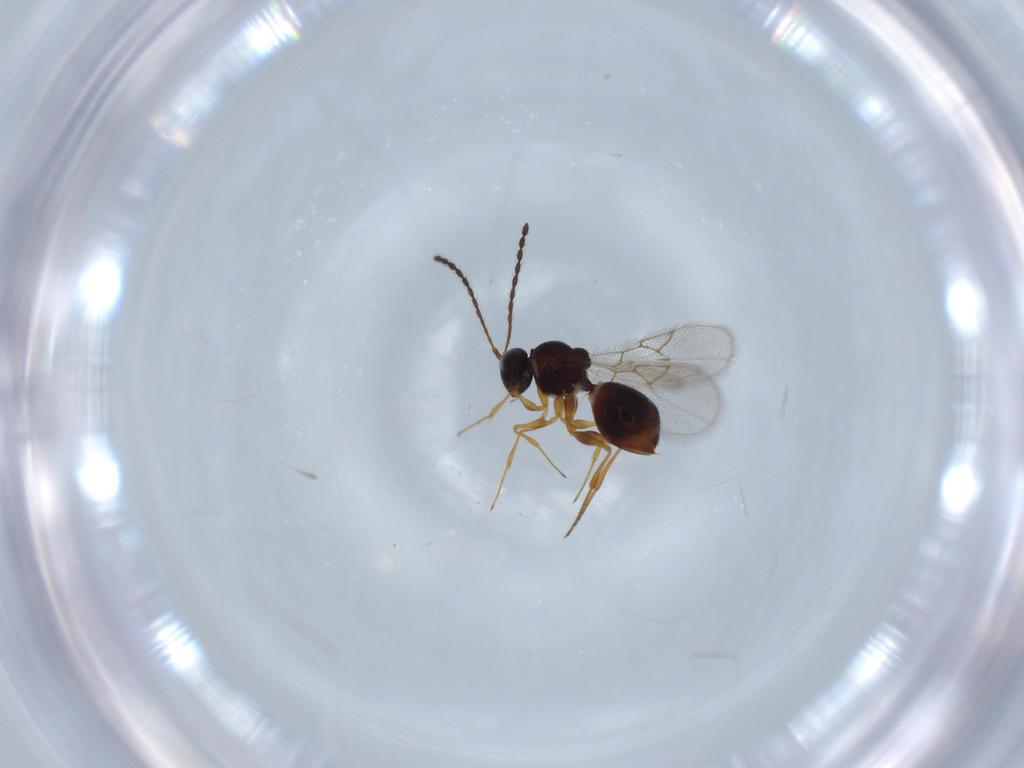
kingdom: Animalia
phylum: Arthropoda
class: Insecta
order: Hymenoptera
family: Figitidae
